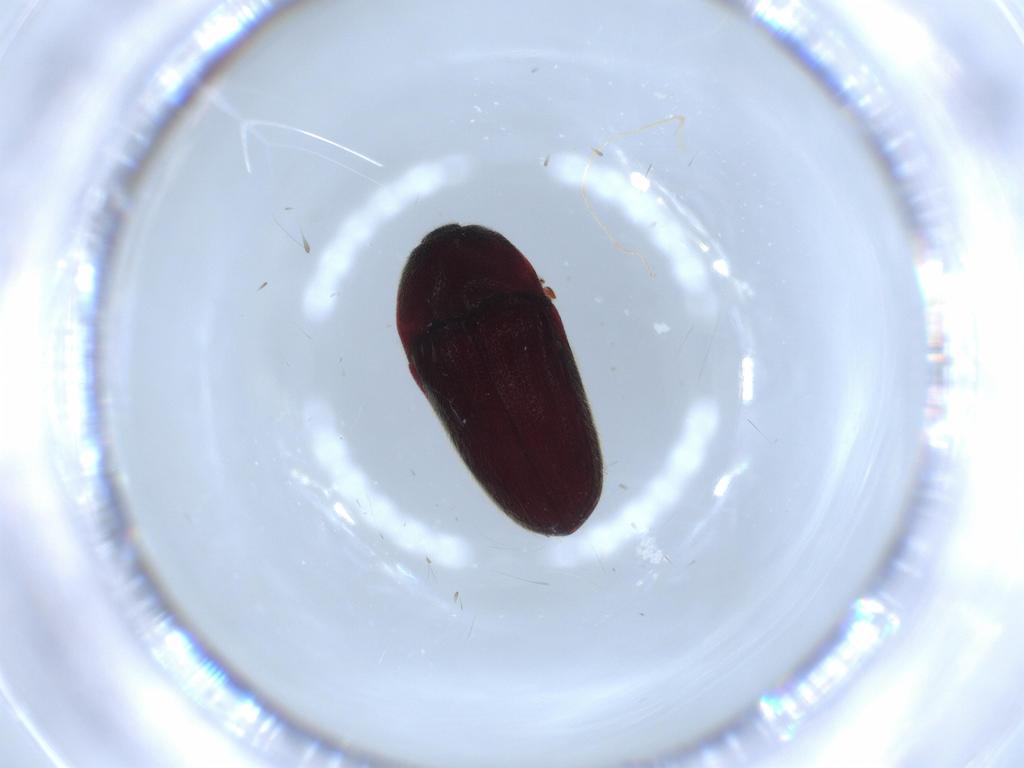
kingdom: Animalia
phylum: Arthropoda
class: Insecta
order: Coleoptera
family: Throscidae
